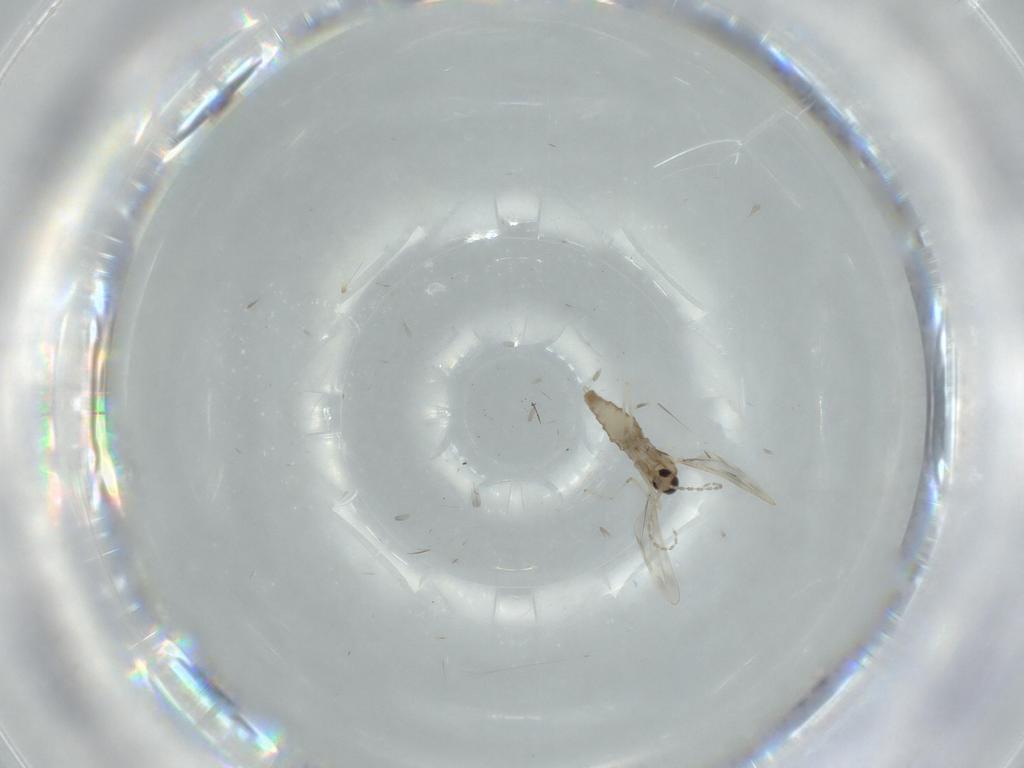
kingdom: Animalia
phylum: Arthropoda
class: Insecta
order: Diptera
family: Cecidomyiidae
